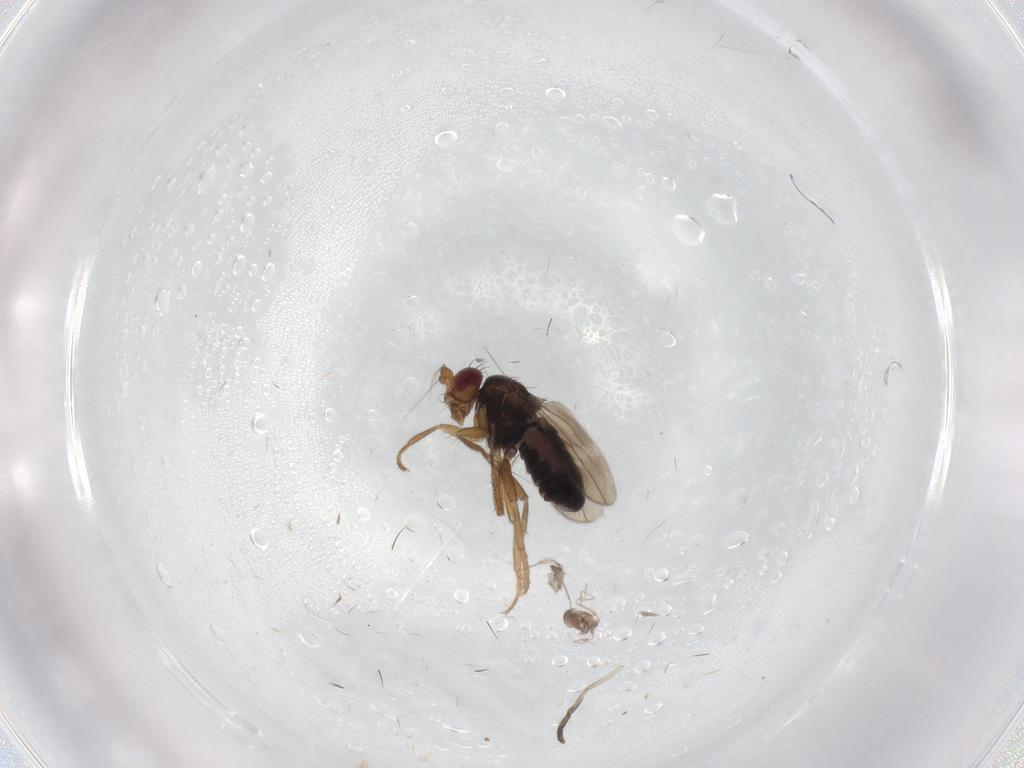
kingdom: Animalia
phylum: Arthropoda
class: Insecta
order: Diptera
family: Sphaeroceridae
